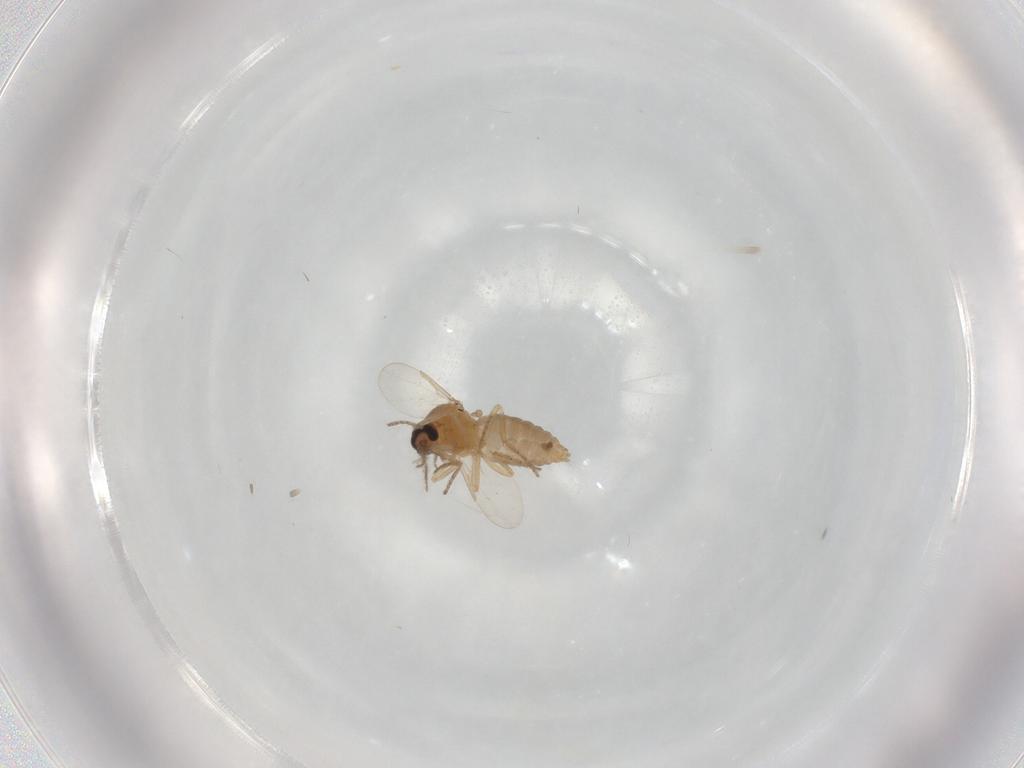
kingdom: Animalia
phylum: Arthropoda
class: Insecta
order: Diptera
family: Ceratopogonidae
